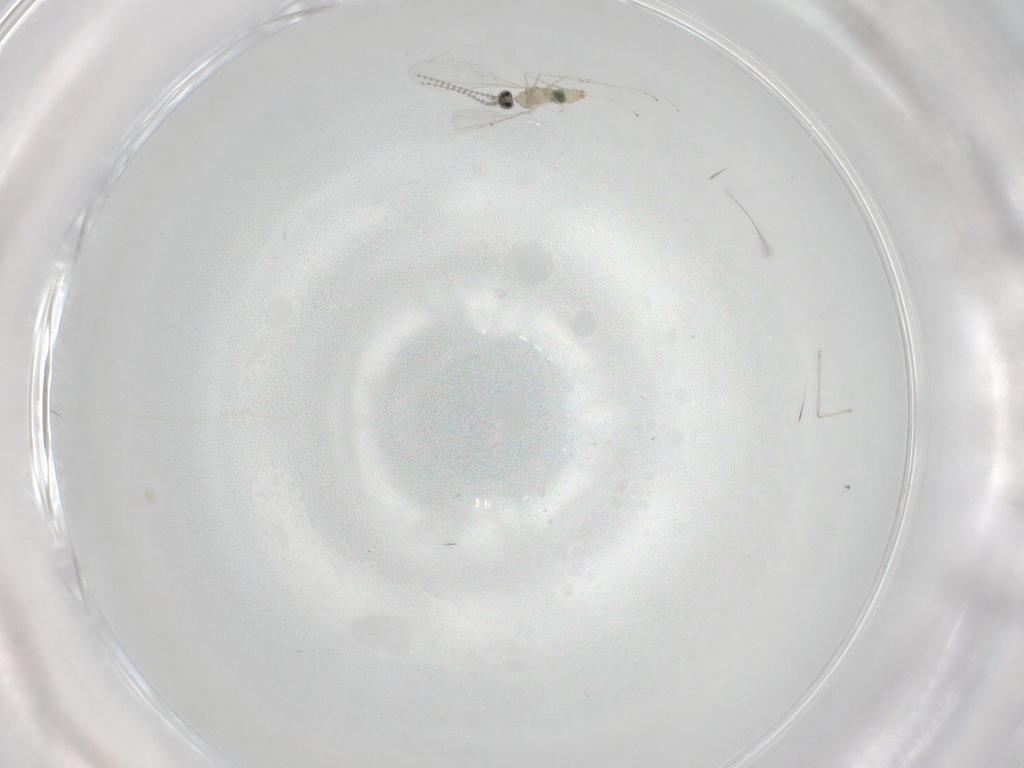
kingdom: Animalia
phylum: Arthropoda
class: Insecta
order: Diptera
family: Cecidomyiidae
